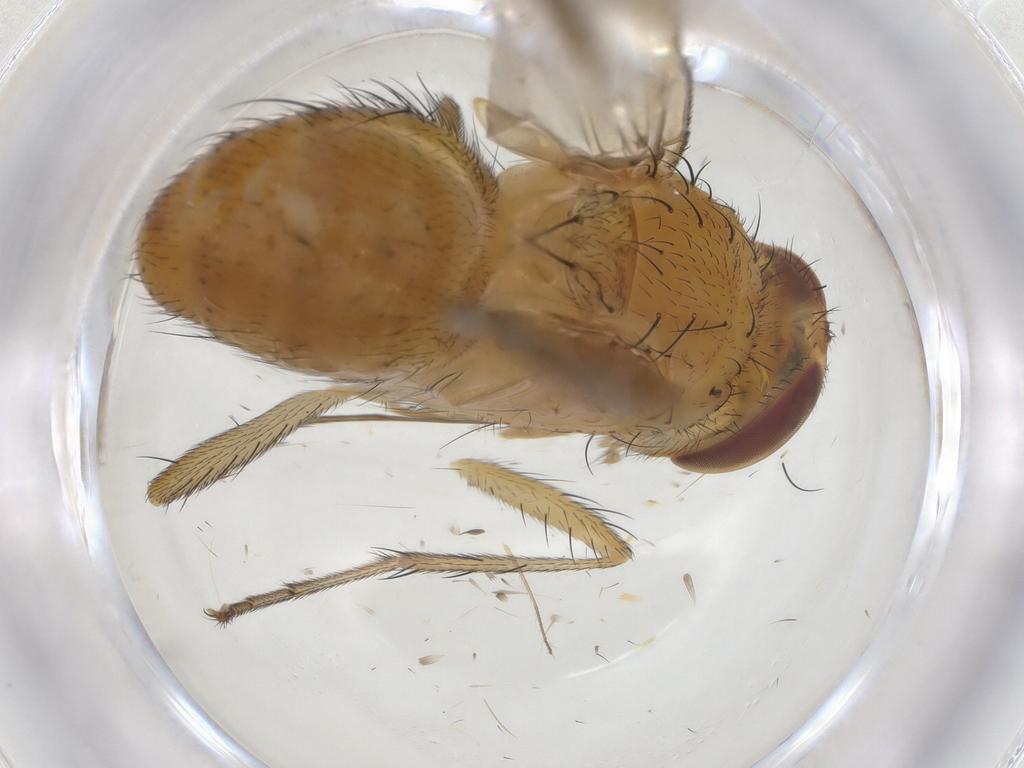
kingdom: Animalia
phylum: Arthropoda
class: Insecta
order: Diptera
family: Tachinidae
